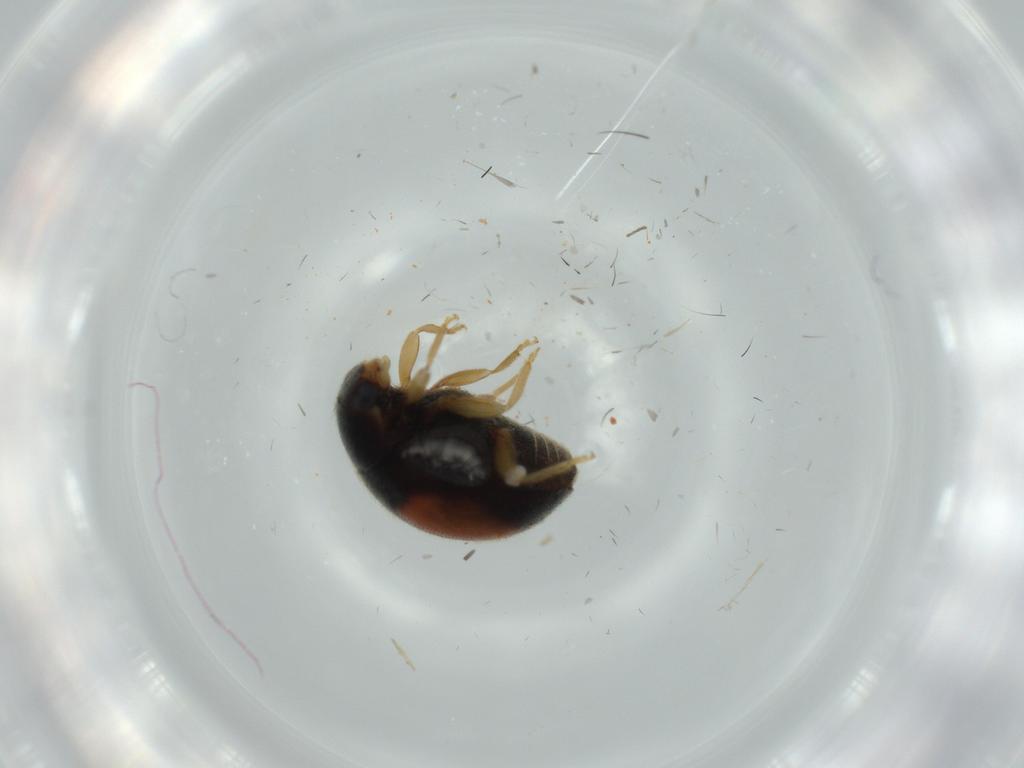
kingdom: Animalia
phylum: Arthropoda
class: Insecta
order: Coleoptera
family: Coccinellidae
